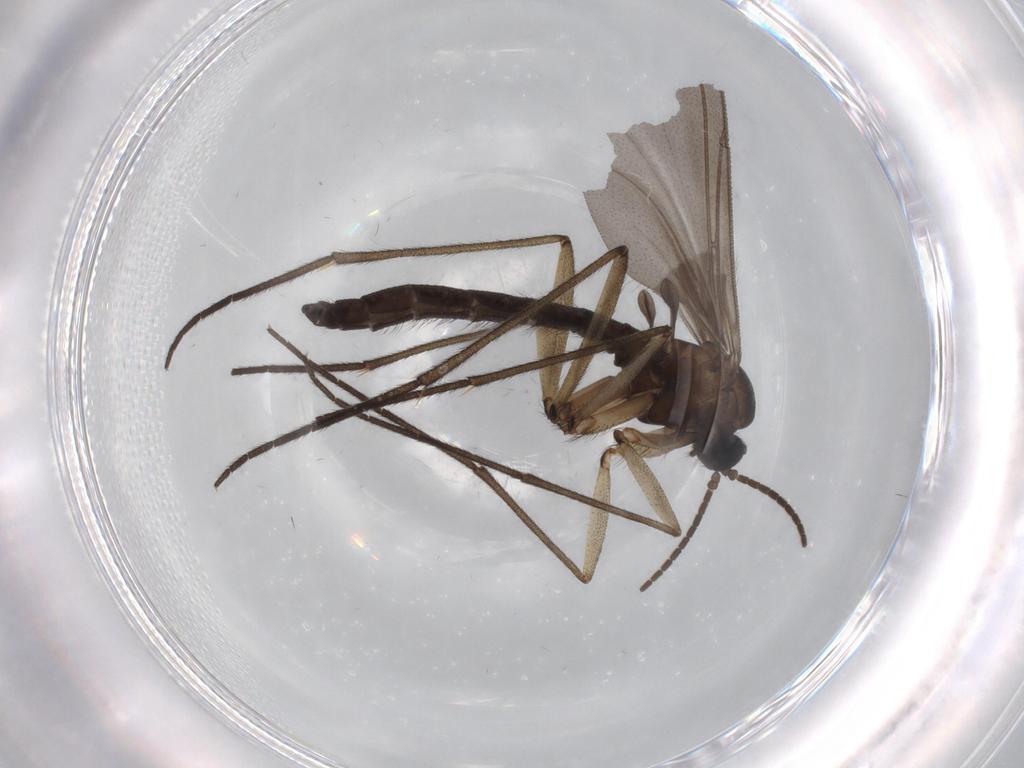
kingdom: Animalia
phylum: Arthropoda
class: Insecta
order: Diptera
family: Sciaridae
